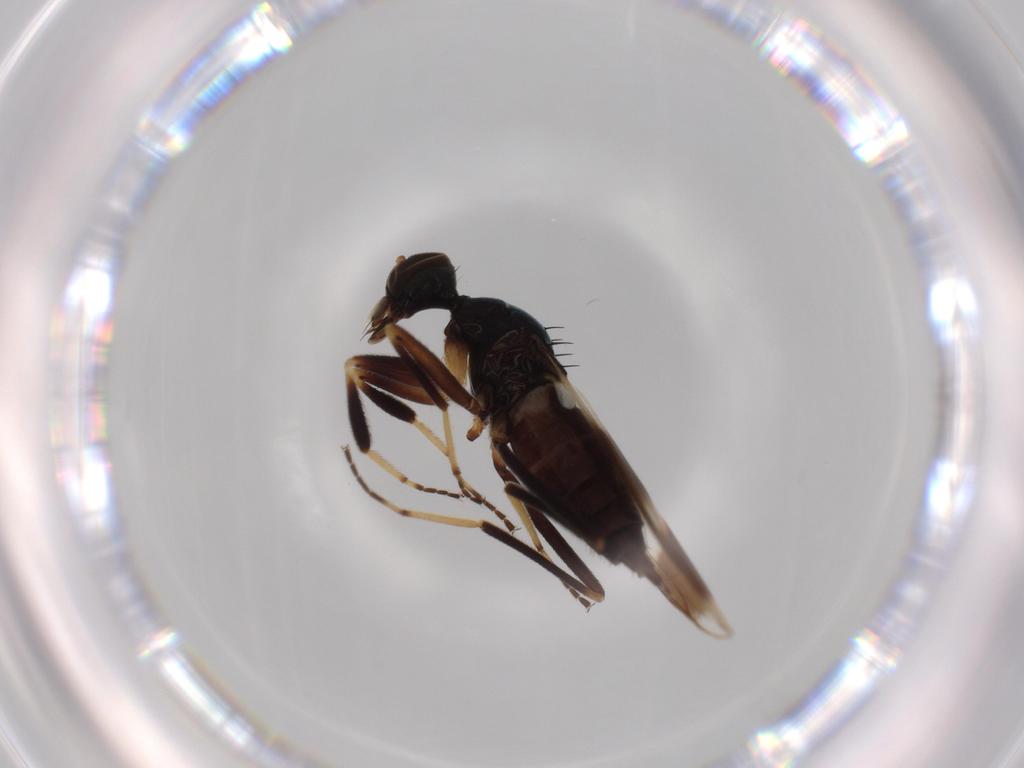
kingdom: Animalia
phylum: Arthropoda
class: Insecta
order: Diptera
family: Hybotidae
